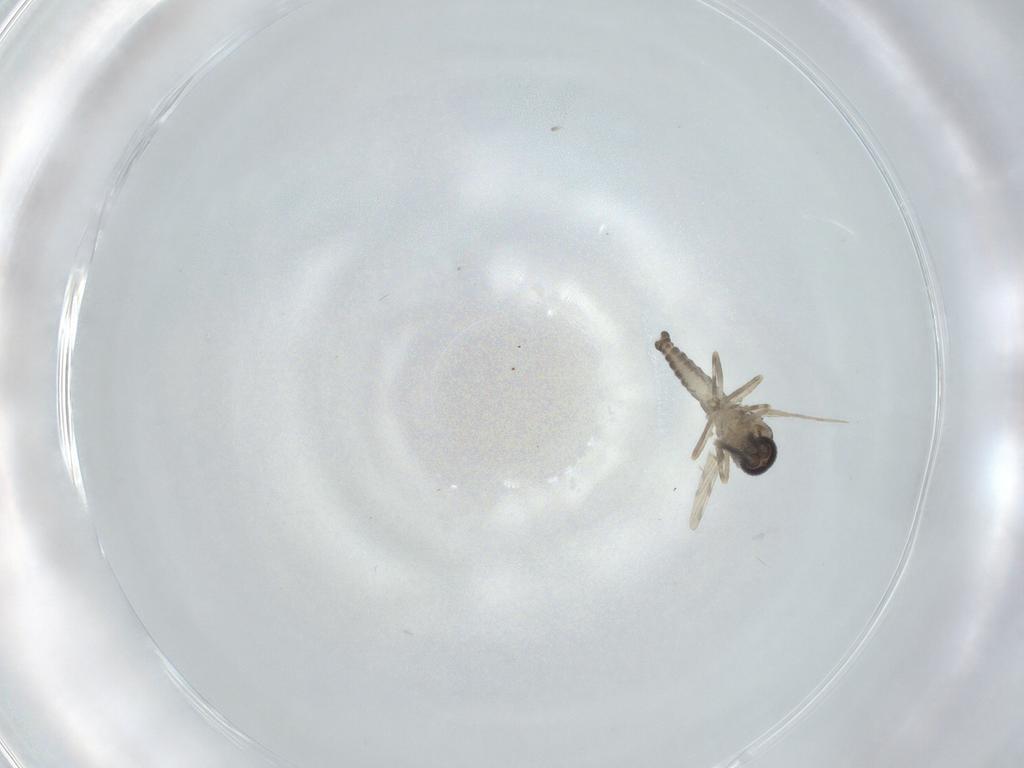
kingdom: Animalia
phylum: Arthropoda
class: Insecta
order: Diptera
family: Ceratopogonidae
